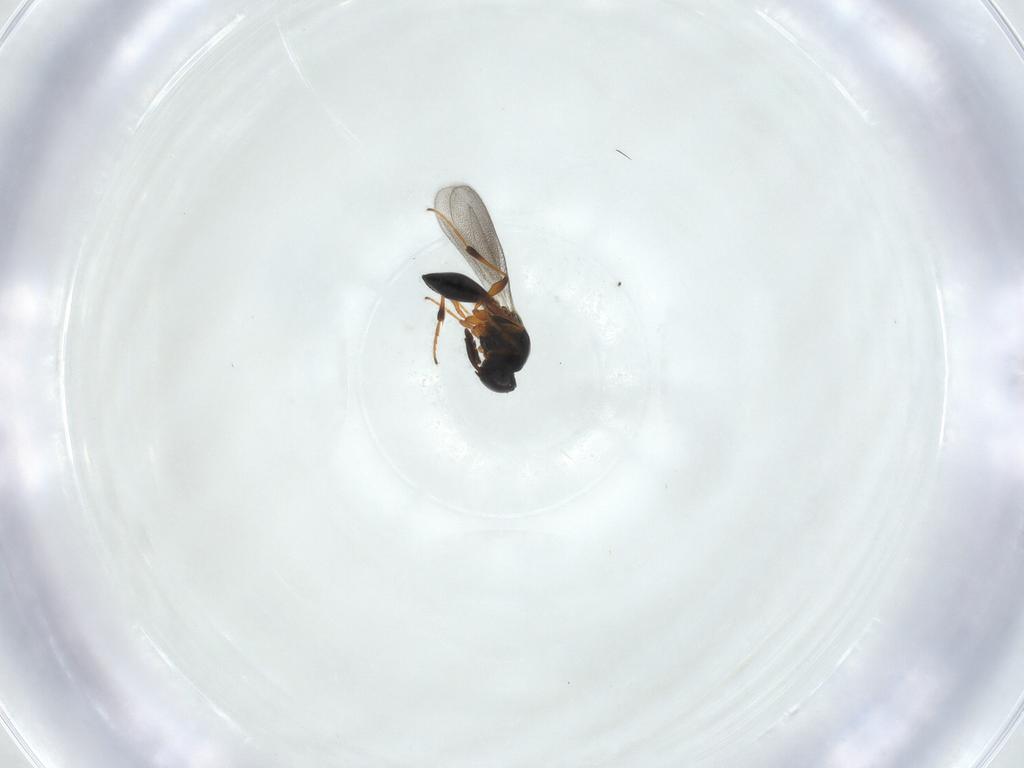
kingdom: Animalia
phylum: Arthropoda
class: Insecta
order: Hymenoptera
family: Platygastridae
